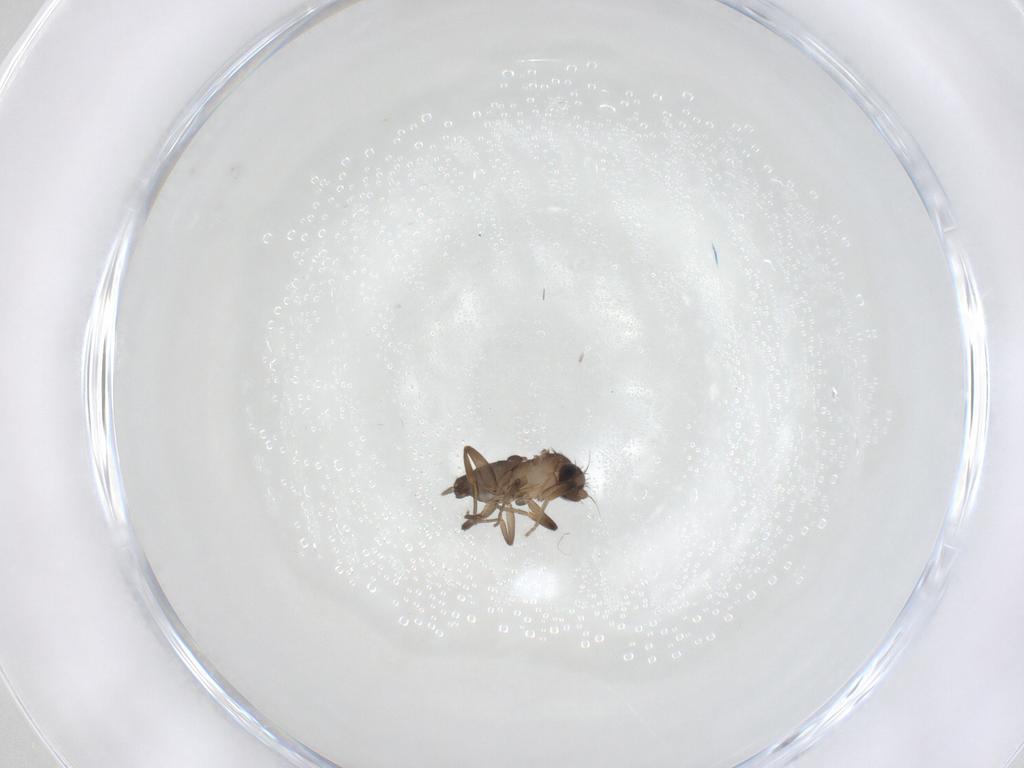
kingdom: Animalia
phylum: Arthropoda
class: Insecta
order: Diptera
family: Phoridae
